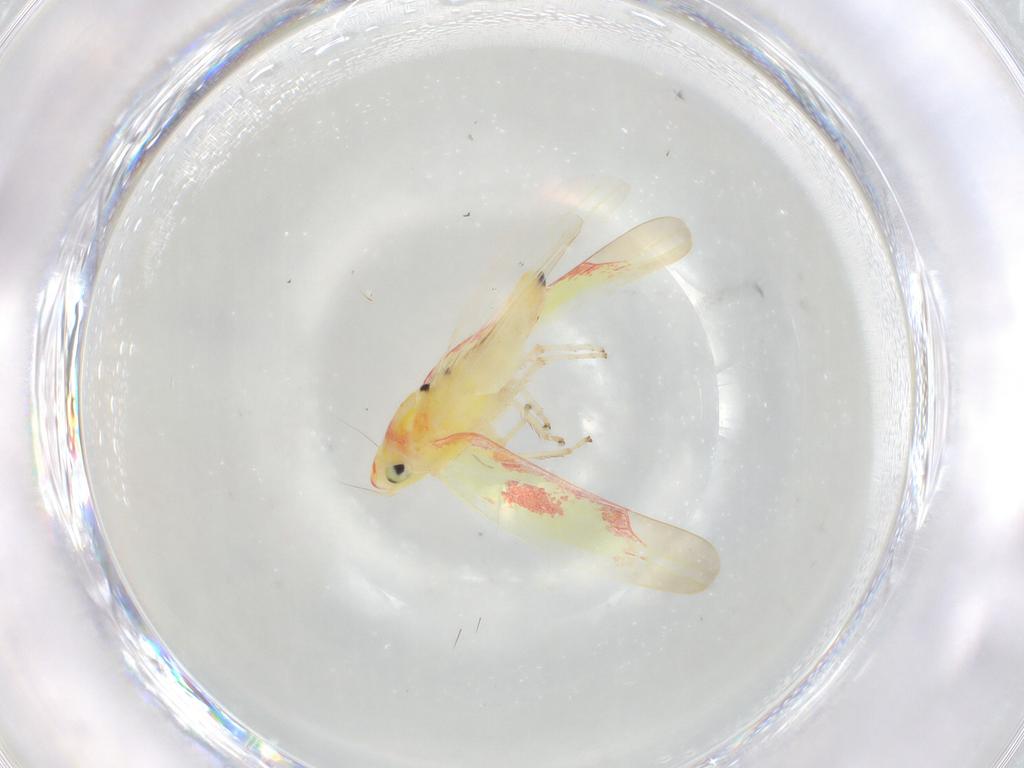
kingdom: Animalia
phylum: Arthropoda
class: Insecta
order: Hemiptera
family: Cicadellidae
